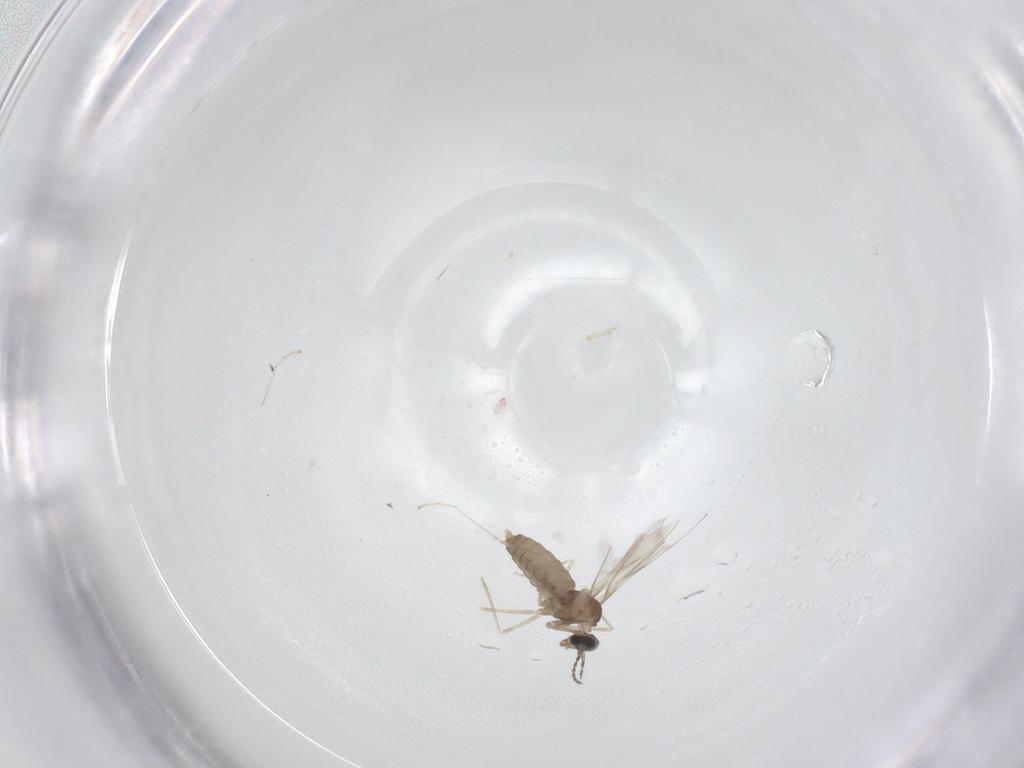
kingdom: Animalia
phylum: Arthropoda
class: Insecta
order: Diptera
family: Cecidomyiidae
